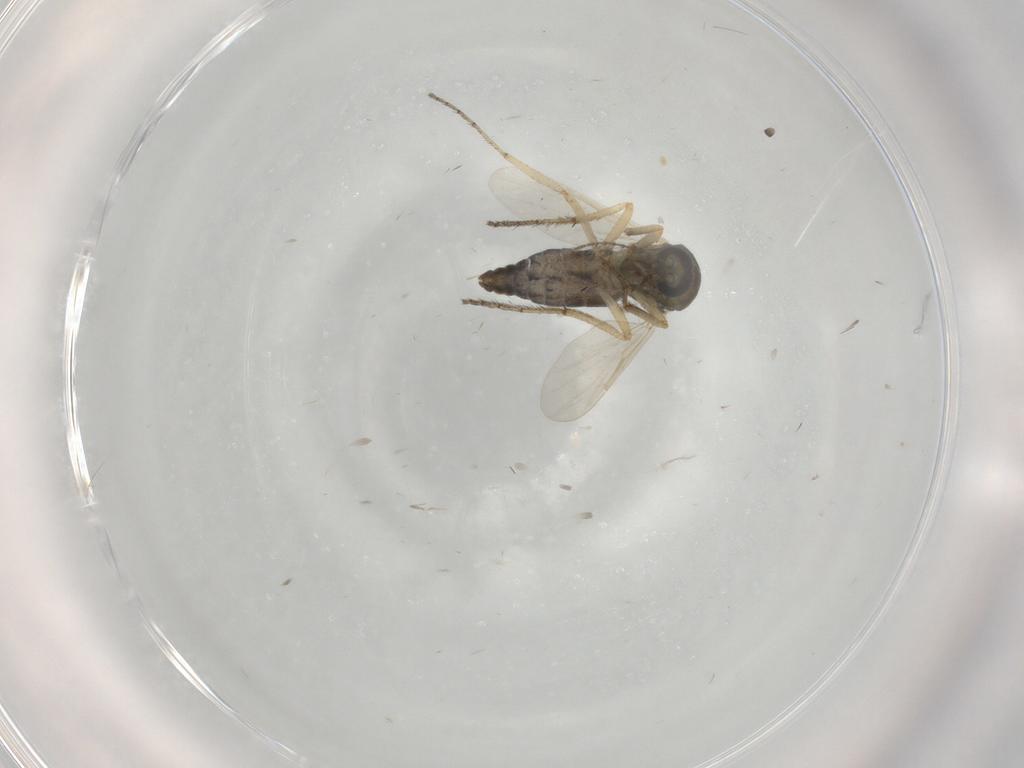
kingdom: Animalia
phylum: Arthropoda
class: Insecta
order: Diptera
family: Ceratopogonidae
